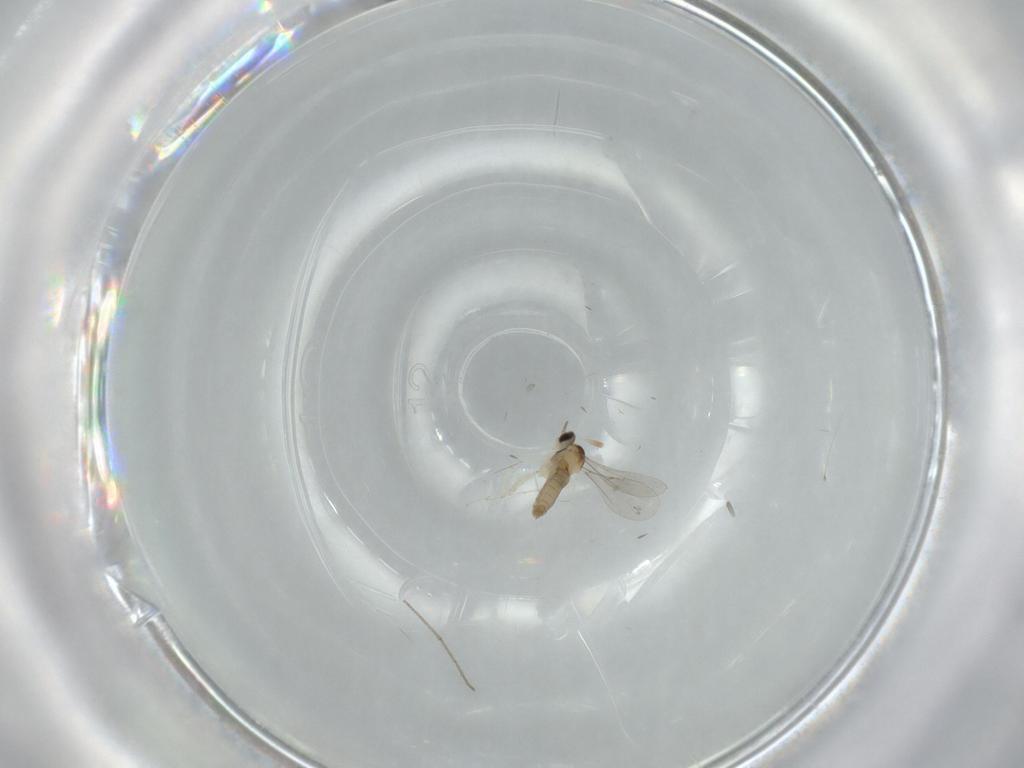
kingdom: Animalia
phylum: Arthropoda
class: Insecta
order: Diptera
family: Chironomidae
